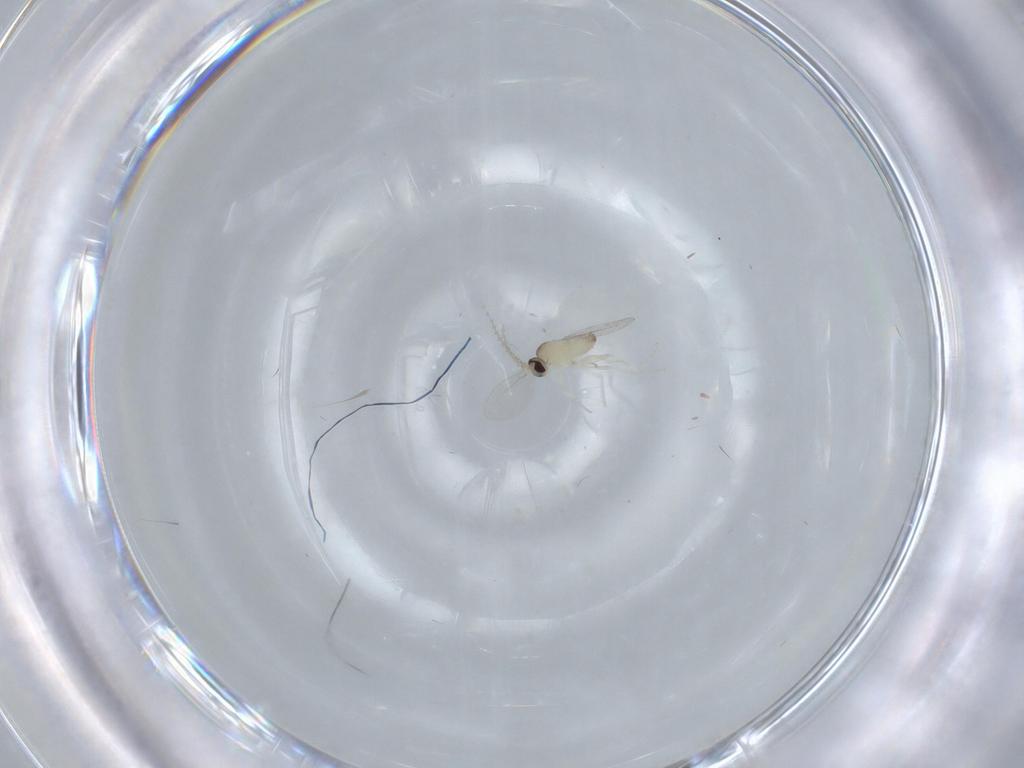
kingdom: Animalia
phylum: Arthropoda
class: Insecta
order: Diptera
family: Cecidomyiidae
